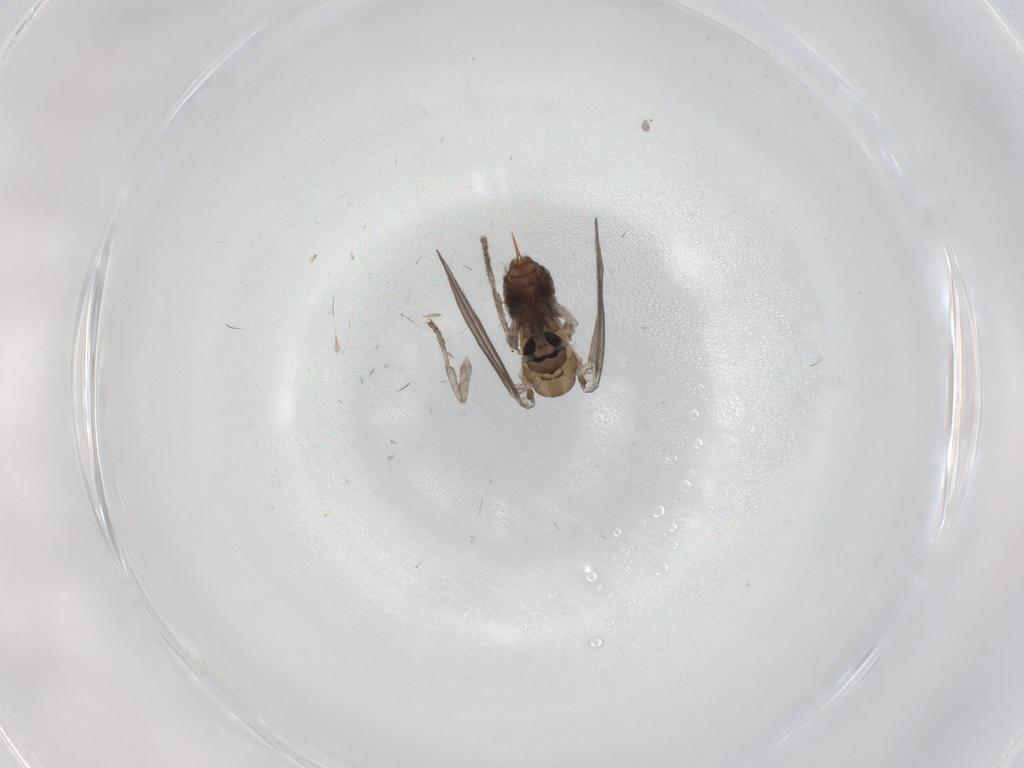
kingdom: Animalia
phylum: Arthropoda
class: Insecta
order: Diptera
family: Psychodidae
